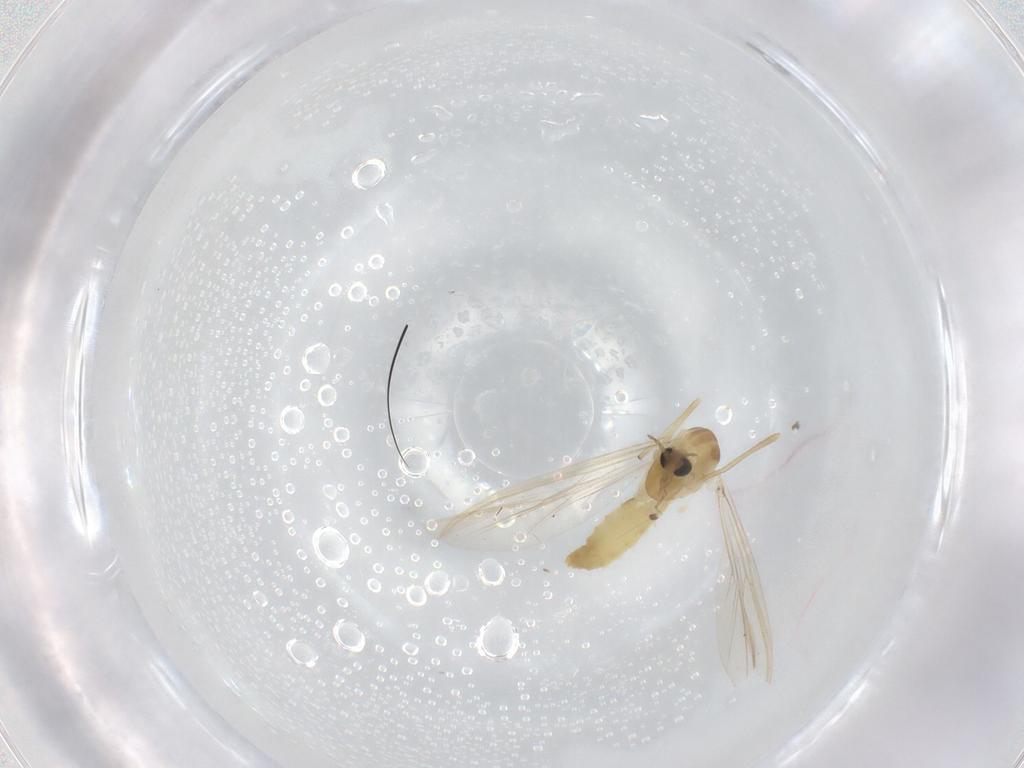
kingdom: Animalia
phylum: Arthropoda
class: Insecta
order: Diptera
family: Chironomidae
